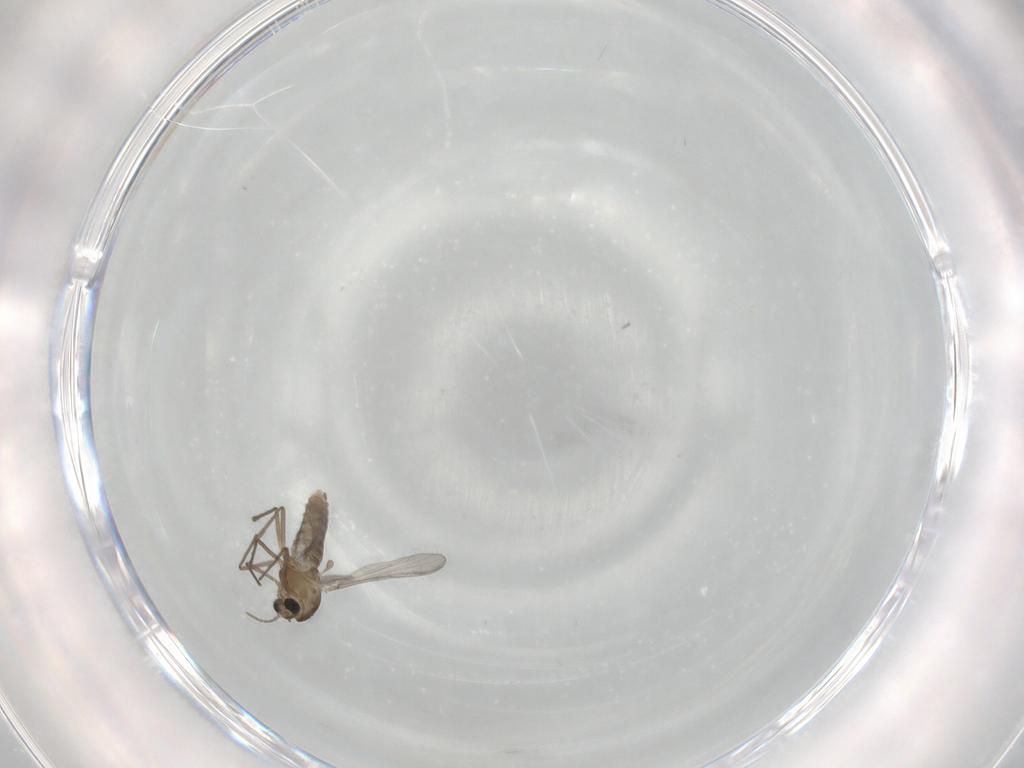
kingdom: Animalia
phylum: Arthropoda
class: Insecta
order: Diptera
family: Chironomidae
